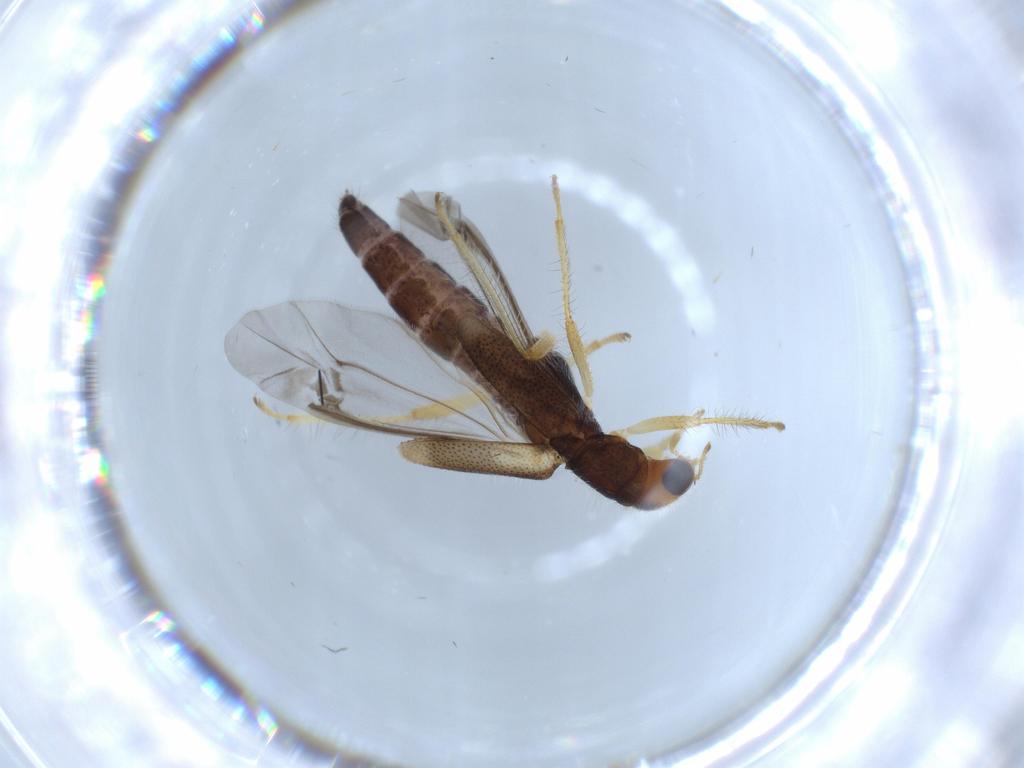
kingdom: Animalia
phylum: Arthropoda
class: Insecta
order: Coleoptera
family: Cleridae
